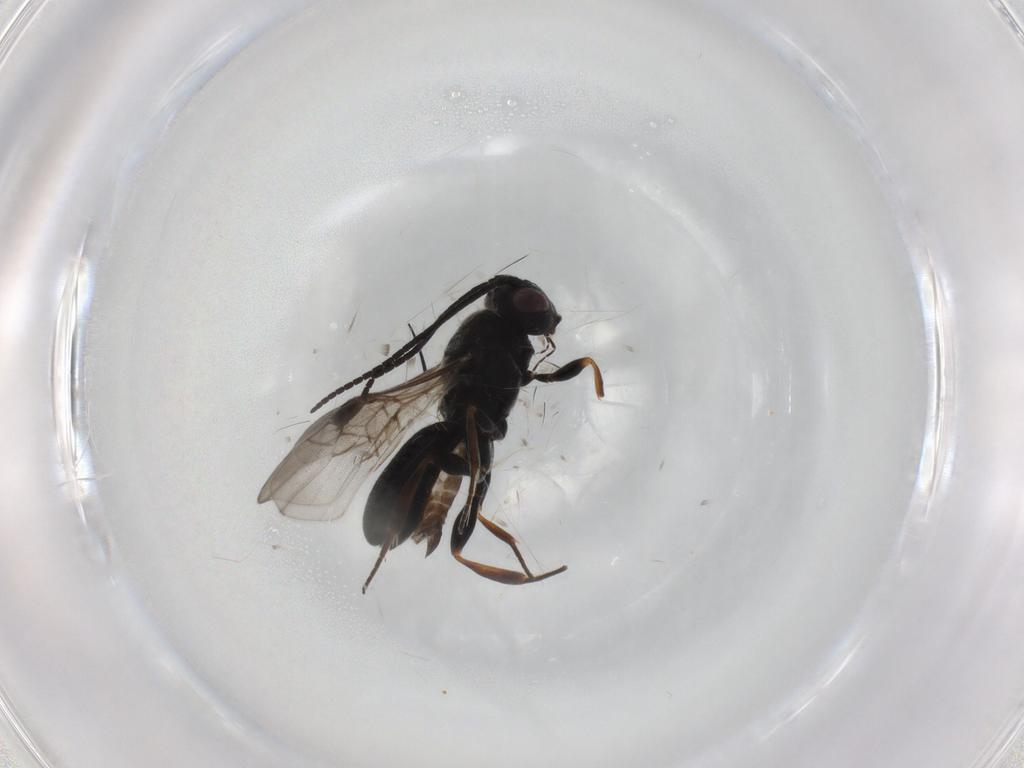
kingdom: Animalia
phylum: Arthropoda
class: Insecta
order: Hymenoptera
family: Braconidae
